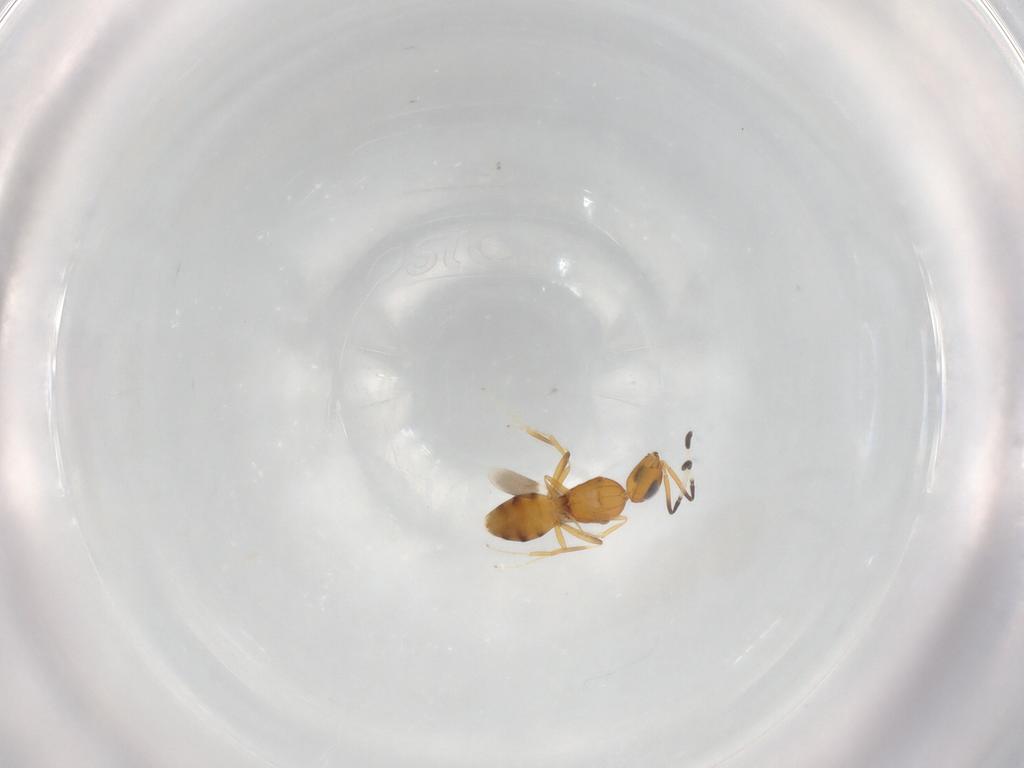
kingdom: Animalia
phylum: Arthropoda
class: Insecta
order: Hymenoptera
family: Scelionidae
